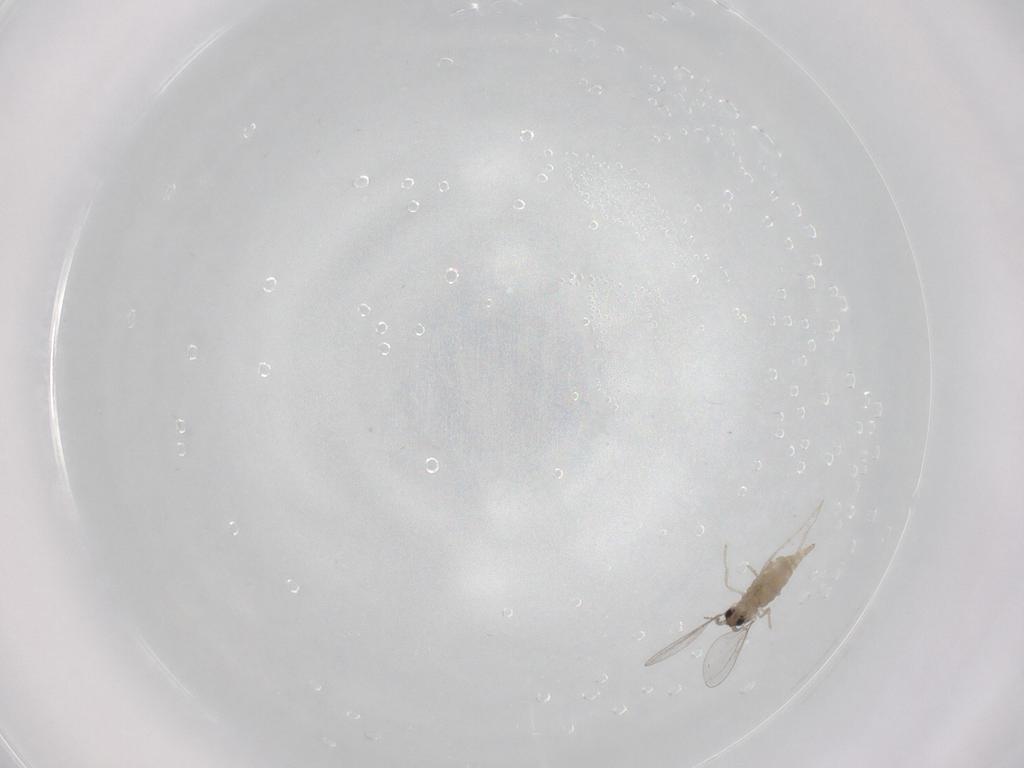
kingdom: Animalia
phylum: Arthropoda
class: Insecta
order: Diptera
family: Cecidomyiidae
